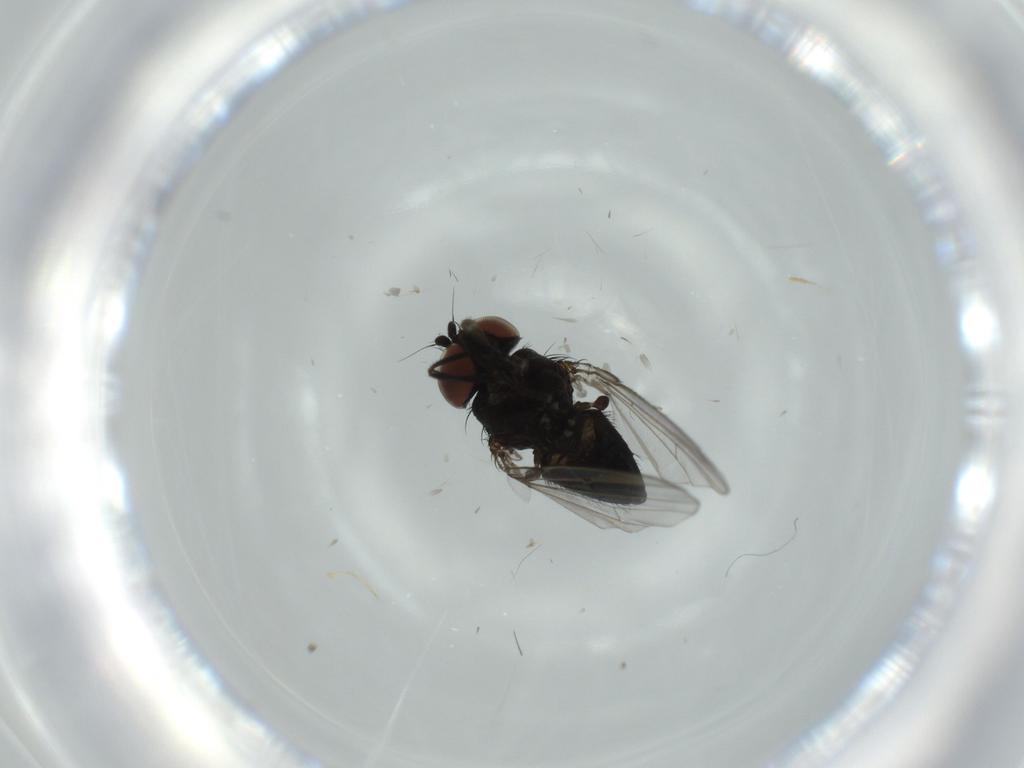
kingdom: Animalia
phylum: Arthropoda
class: Insecta
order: Diptera
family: Milichiidae
